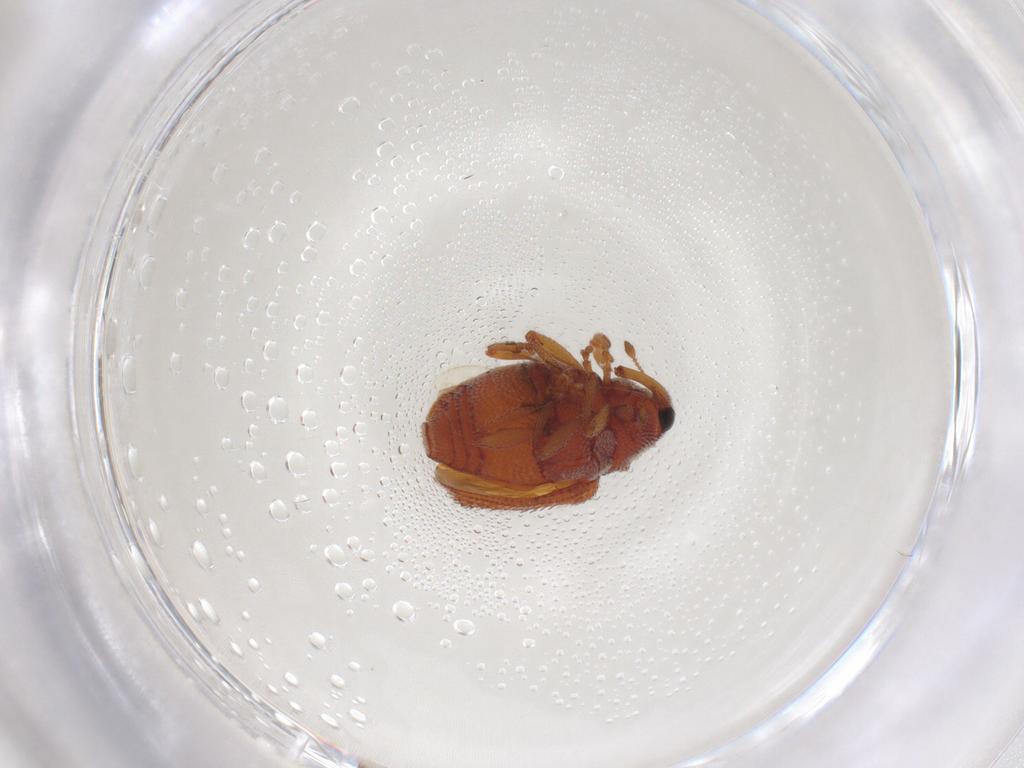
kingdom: Animalia
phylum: Arthropoda
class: Insecta
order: Coleoptera
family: Curculionidae
